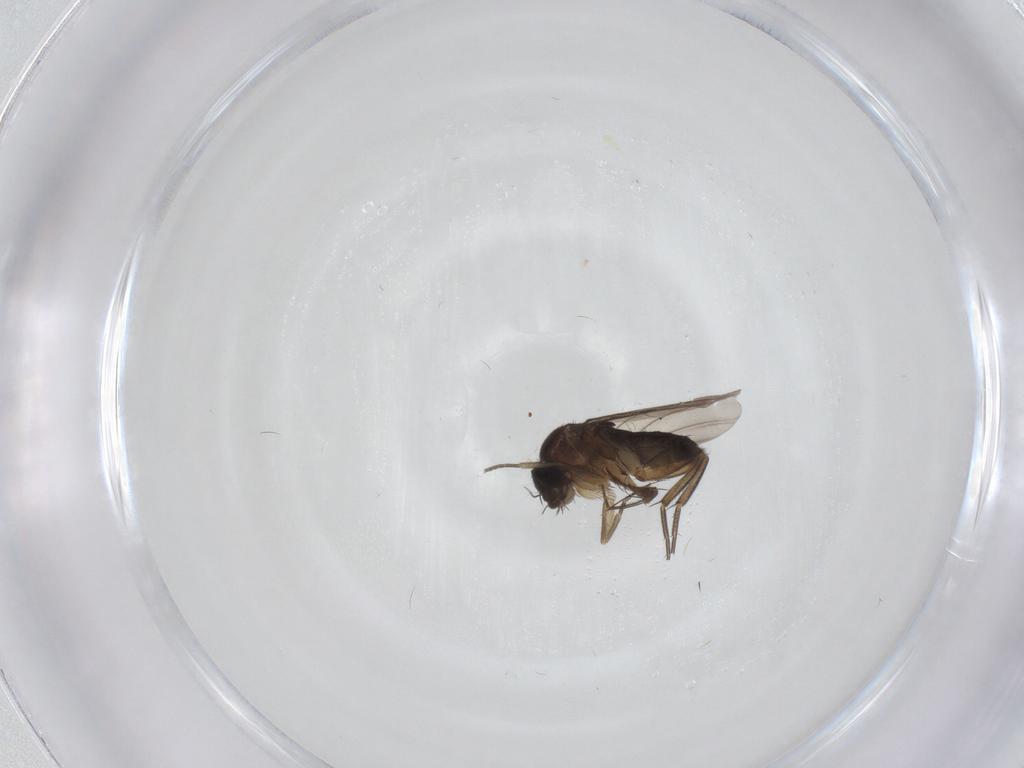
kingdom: Animalia
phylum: Arthropoda
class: Insecta
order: Diptera
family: Phoridae
